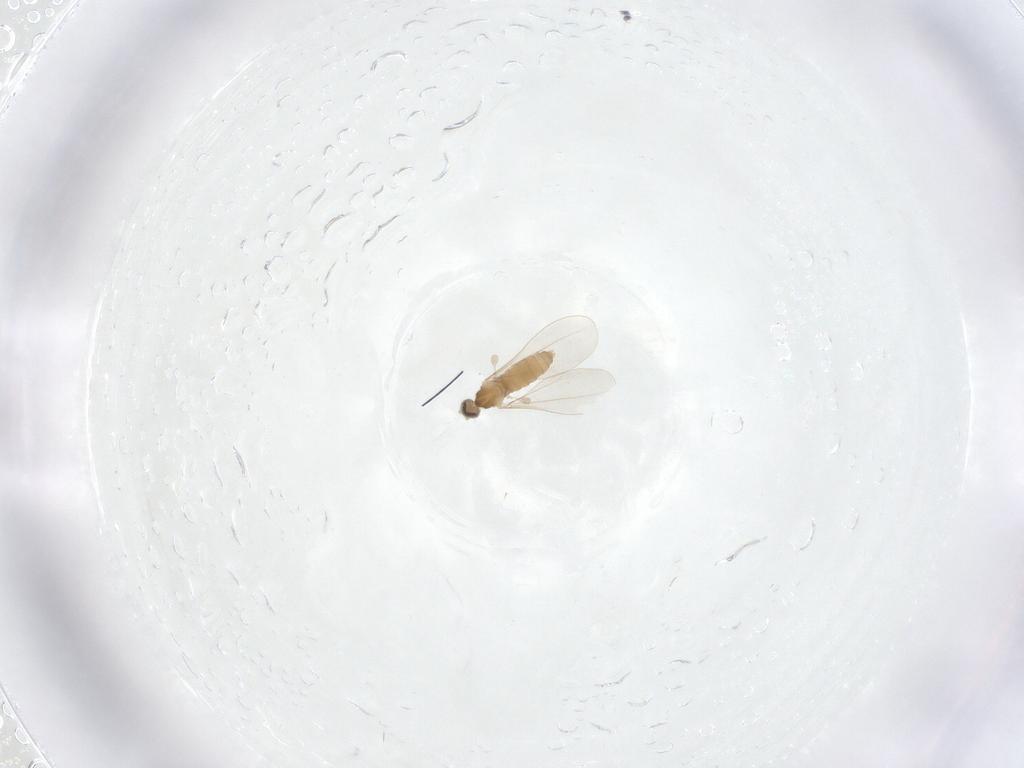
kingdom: Animalia
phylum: Arthropoda
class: Insecta
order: Diptera
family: Cecidomyiidae
